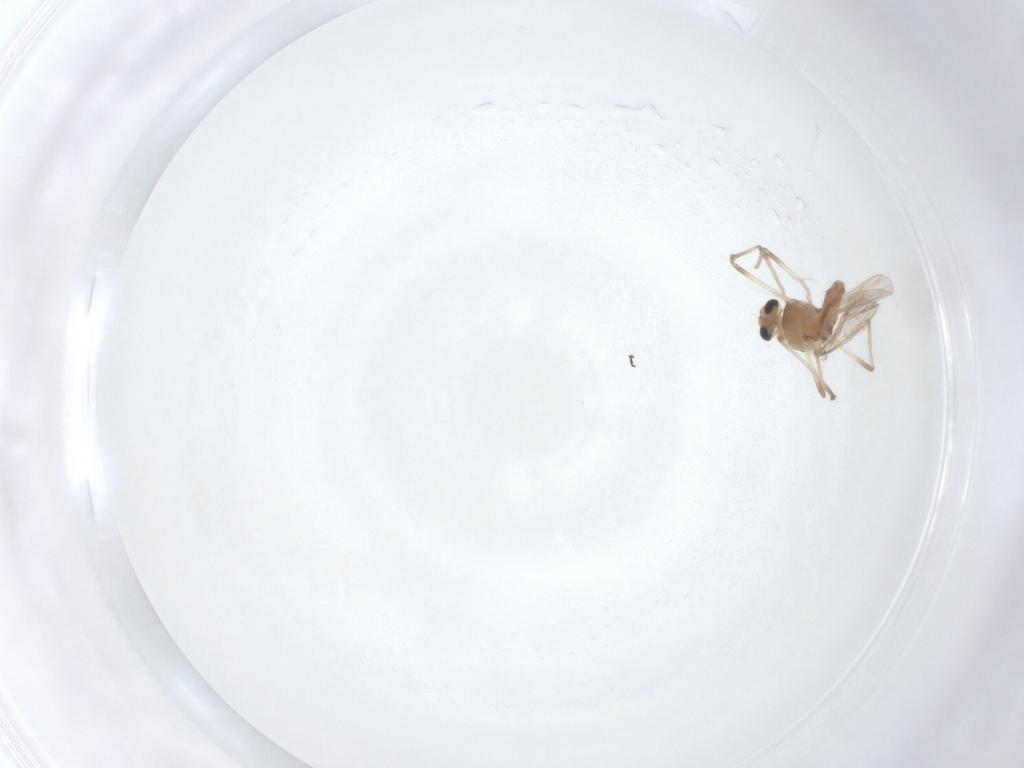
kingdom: Animalia
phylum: Arthropoda
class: Insecta
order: Diptera
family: Chironomidae
